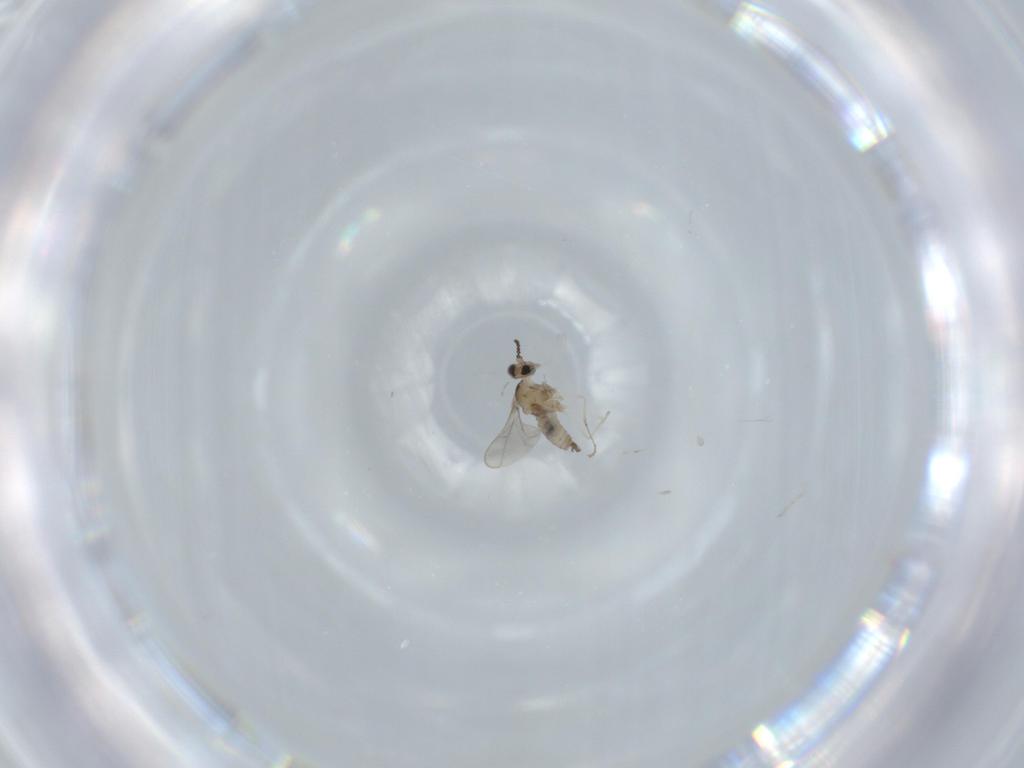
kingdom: Animalia
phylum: Arthropoda
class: Insecta
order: Diptera
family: Cecidomyiidae
